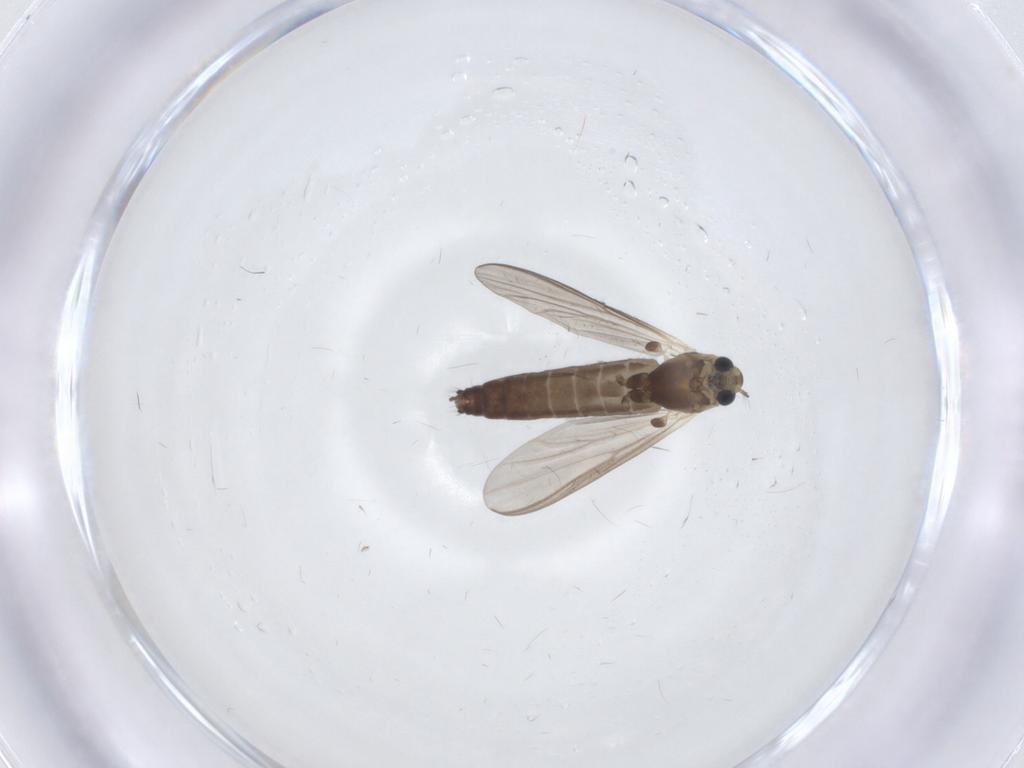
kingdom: Animalia
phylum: Arthropoda
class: Insecta
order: Diptera
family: Chironomidae
